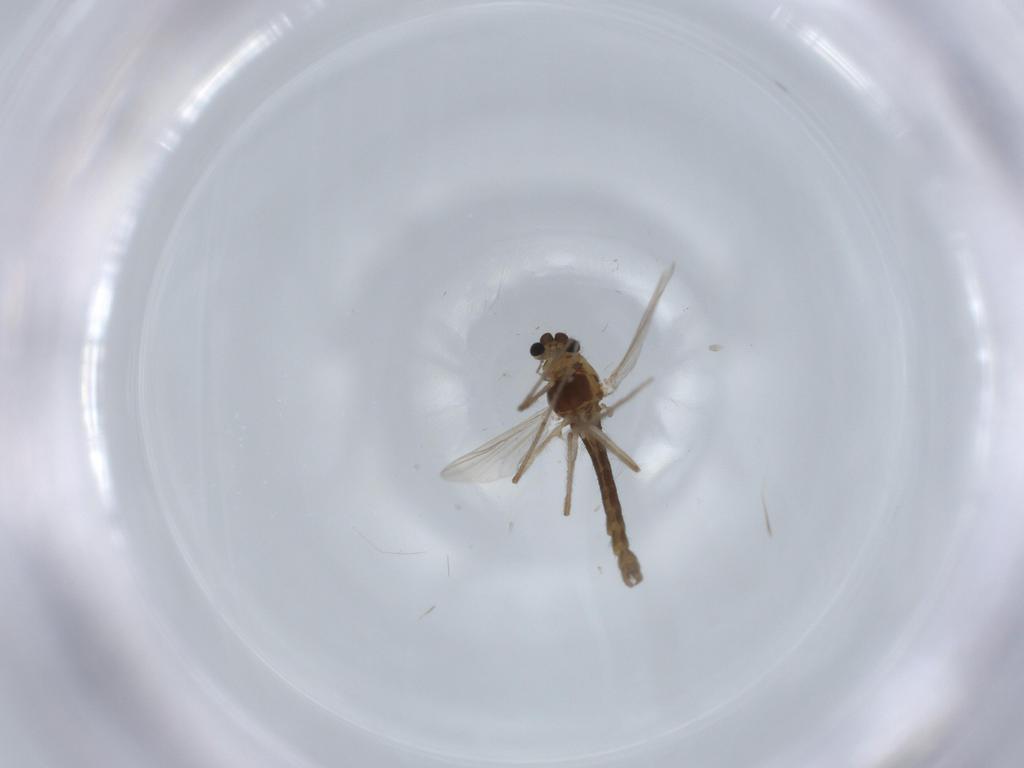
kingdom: Animalia
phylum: Arthropoda
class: Insecta
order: Diptera
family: Chironomidae
